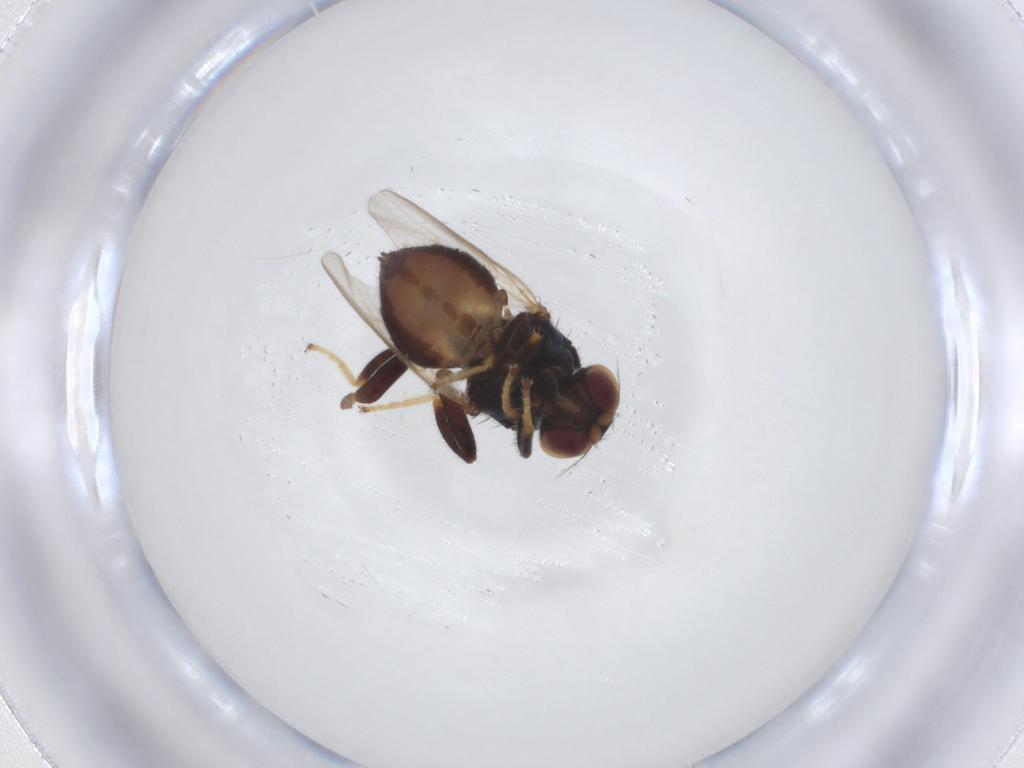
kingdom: Animalia
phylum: Arthropoda
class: Insecta
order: Diptera
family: Chloropidae
